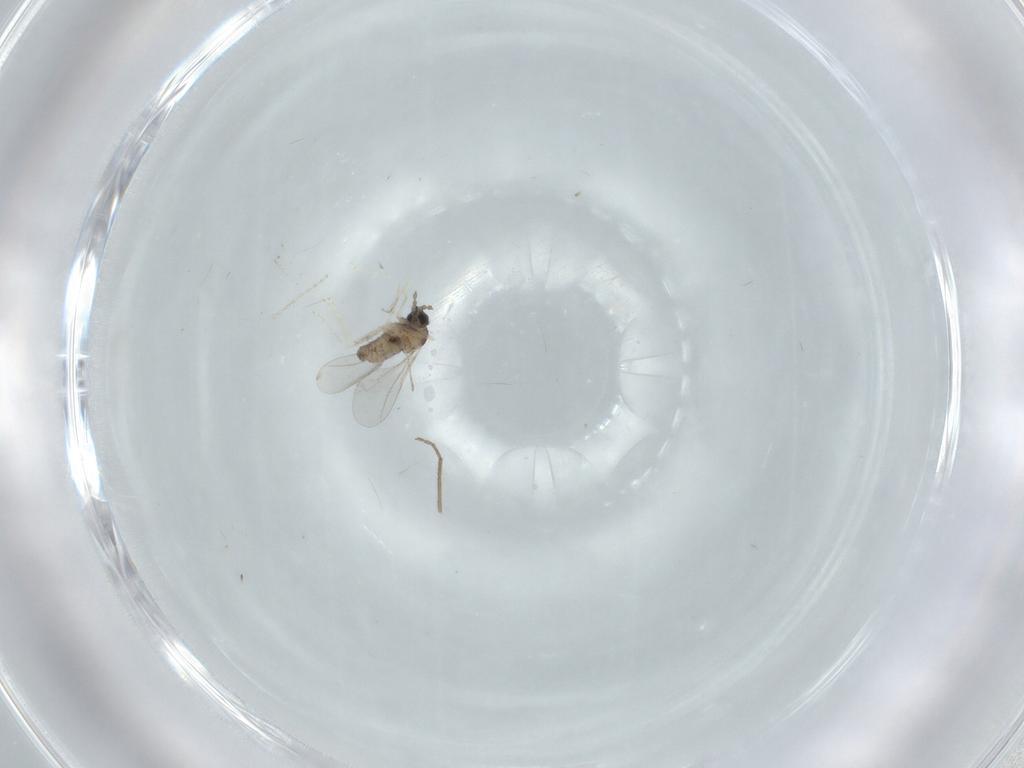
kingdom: Animalia
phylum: Arthropoda
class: Insecta
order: Diptera
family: Cecidomyiidae
